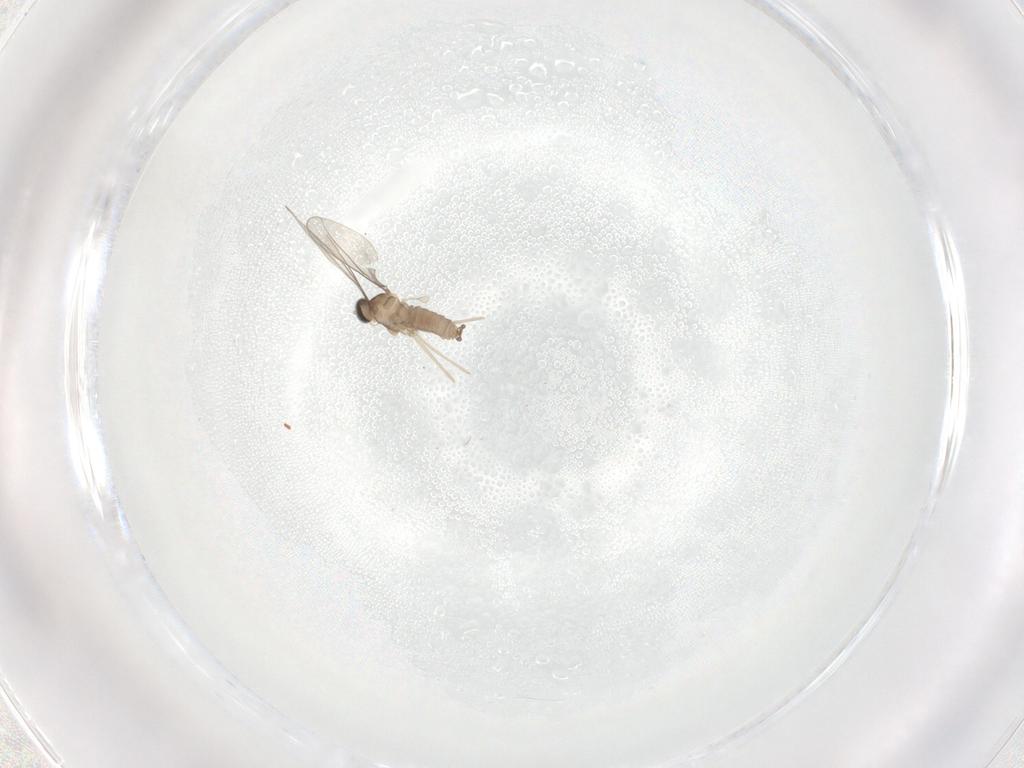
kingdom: Animalia
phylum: Arthropoda
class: Insecta
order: Diptera
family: Cecidomyiidae
